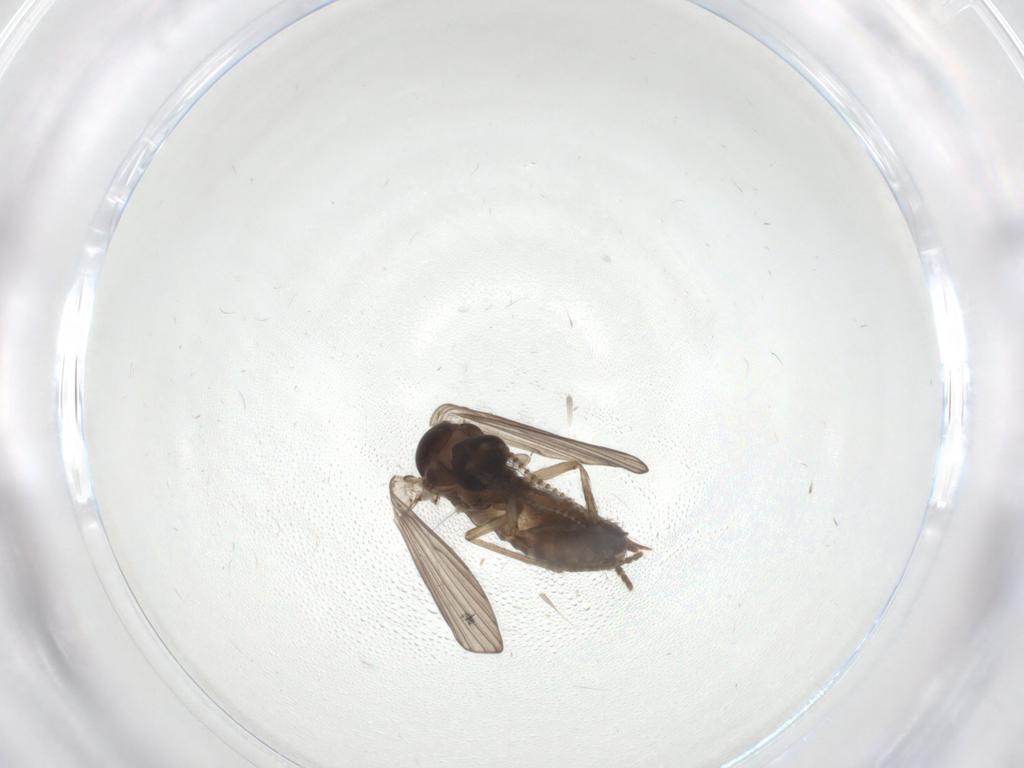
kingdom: Animalia
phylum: Arthropoda
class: Insecta
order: Diptera
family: Psychodidae
